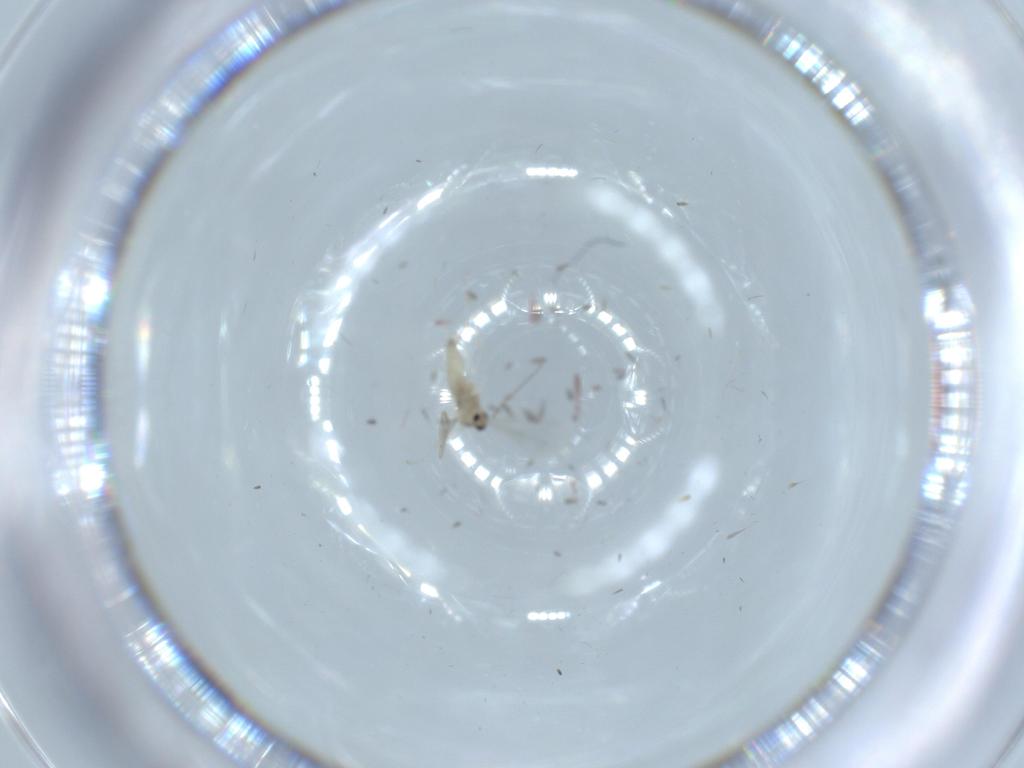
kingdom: Animalia
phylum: Arthropoda
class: Insecta
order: Diptera
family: Cecidomyiidae
